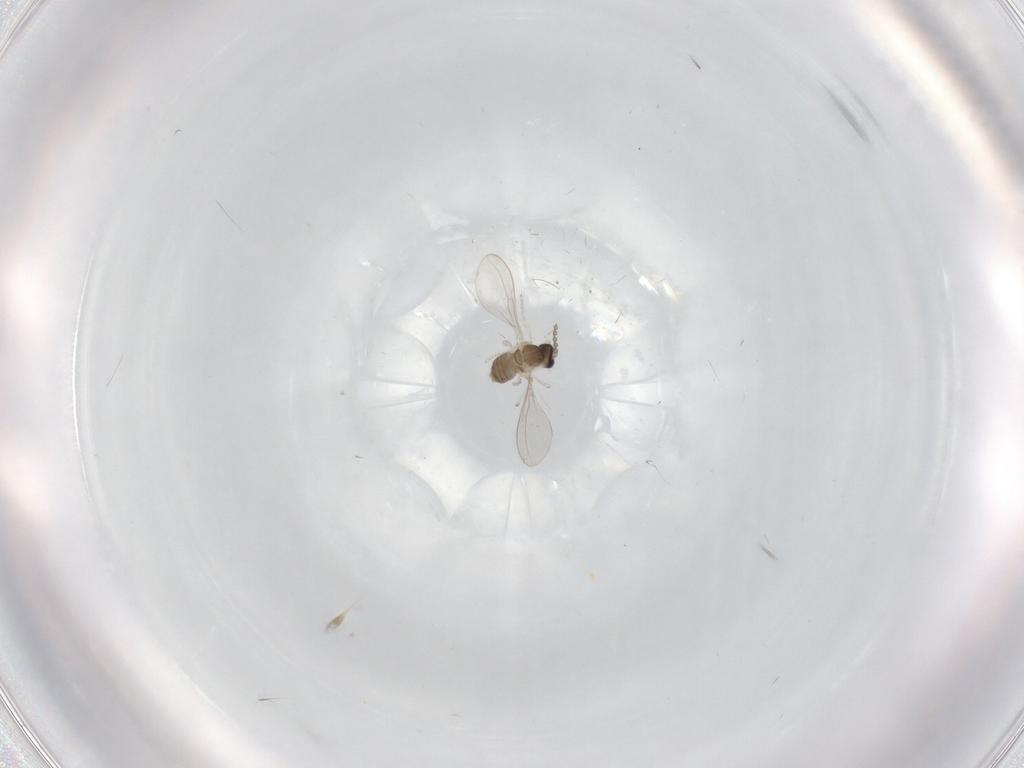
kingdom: Animalia
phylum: Arthropoda
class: Insecta
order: Diptera
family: Cecidomyiidae
